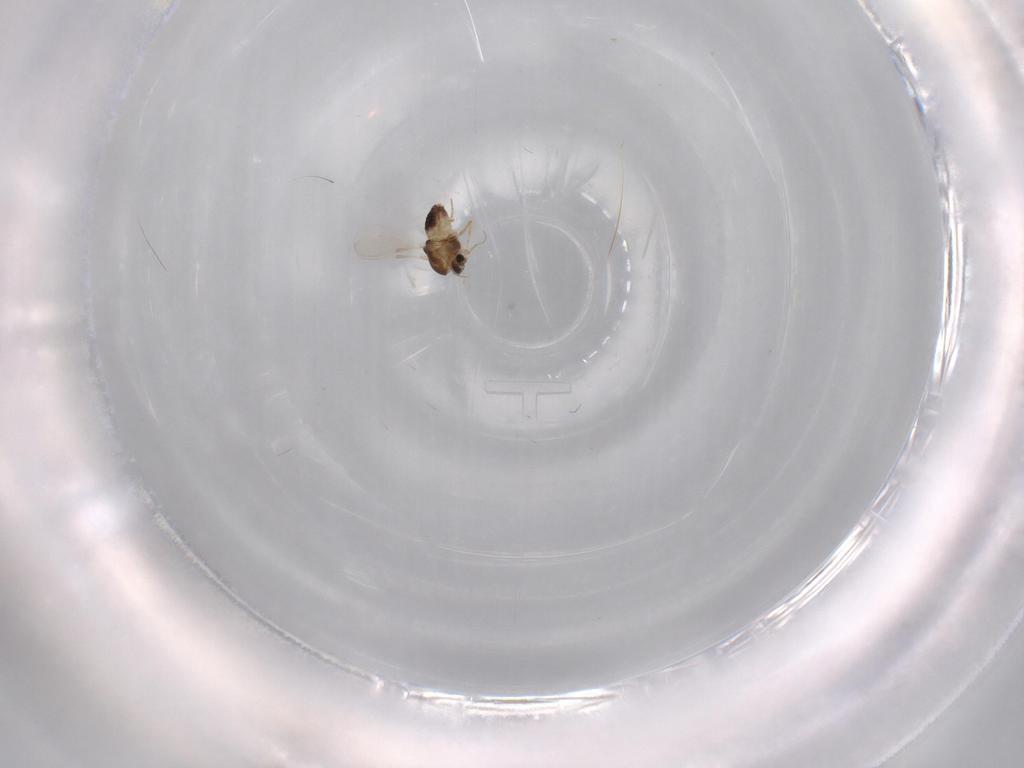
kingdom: Animalia
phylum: Arthropoda
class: Insecta
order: Diptera
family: Chironomidae
